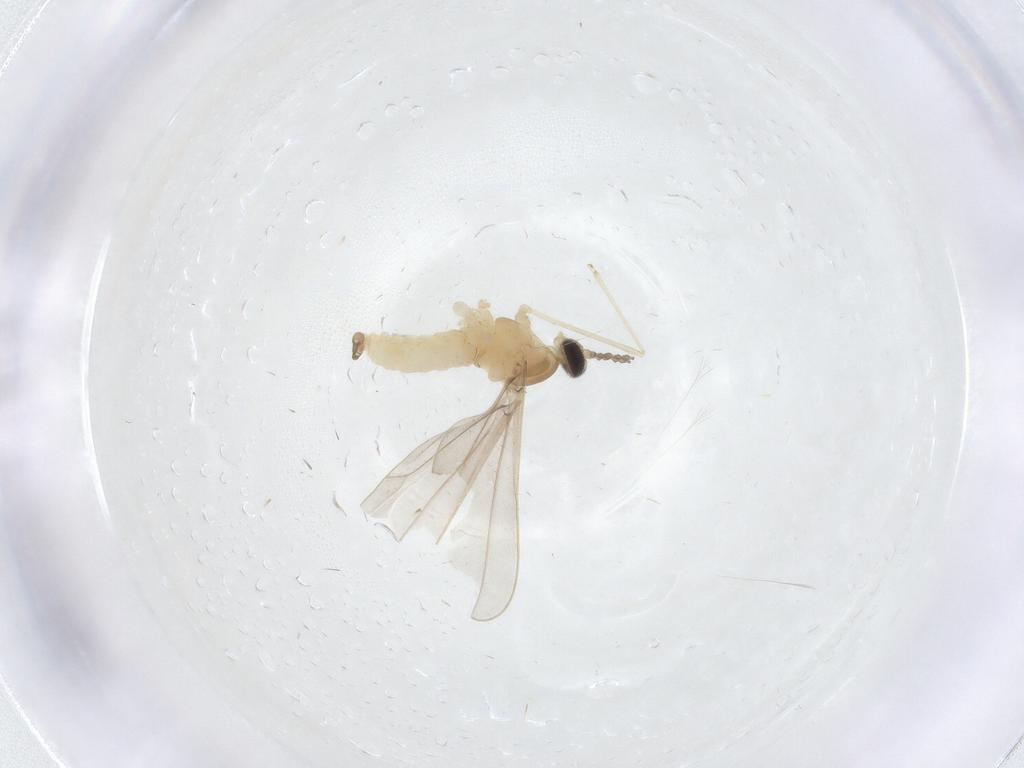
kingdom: Animalia
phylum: Arthropoda
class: Insecta
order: Diptera
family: Cecidomyiidae
